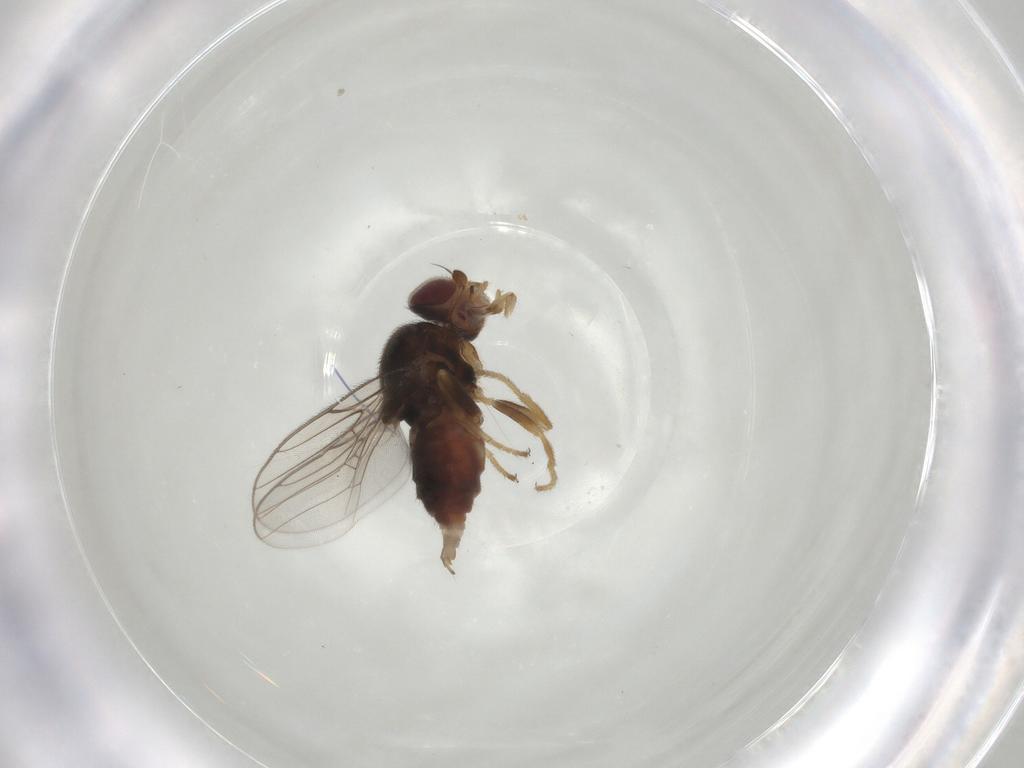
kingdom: Animalia
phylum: Arthropoda
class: Insecta
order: Diptera
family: Chloropidae
